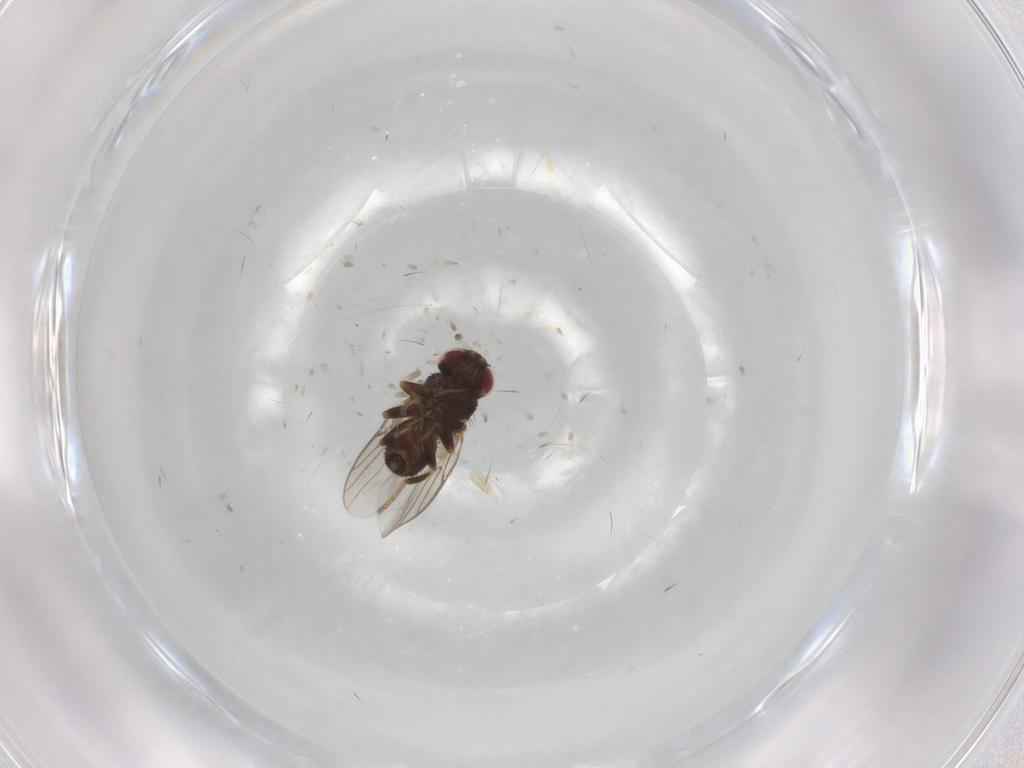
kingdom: Animalia
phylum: Arthropoda
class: Insecta
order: Diptera
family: Chloropidae
